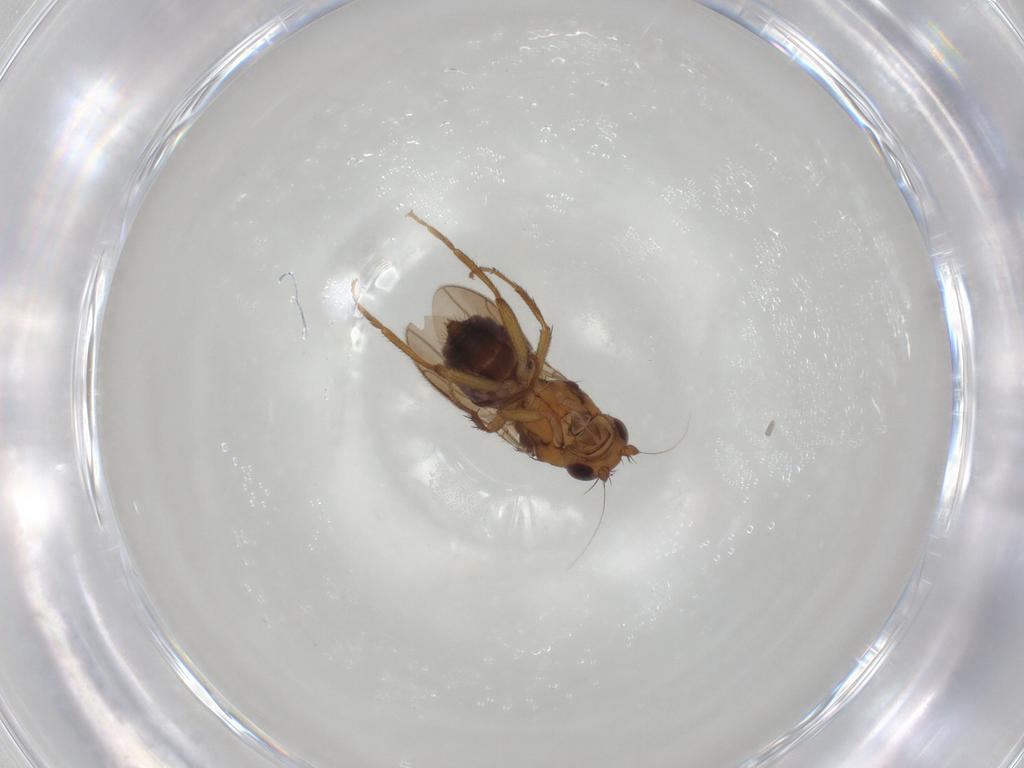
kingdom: Animalia
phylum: Arthropoda
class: Insecta
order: Diptera
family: Sphaeroceridae
